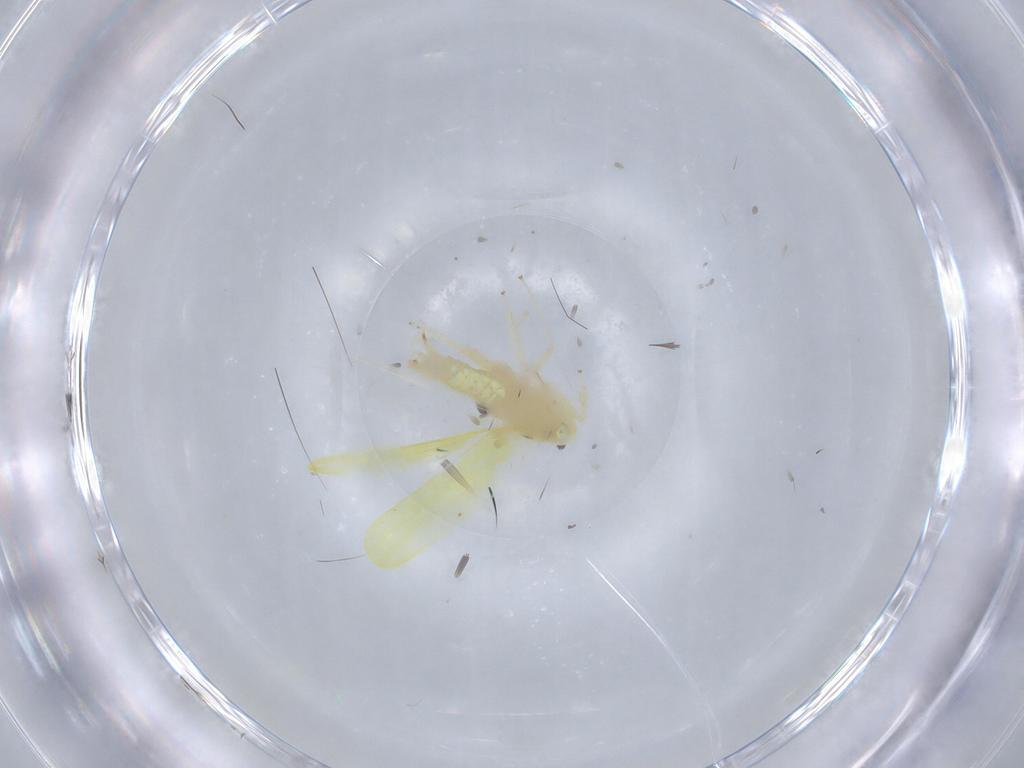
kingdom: Animalia
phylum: Arthropoda
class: Insecta
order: Hemiptera
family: Cicadellidae
